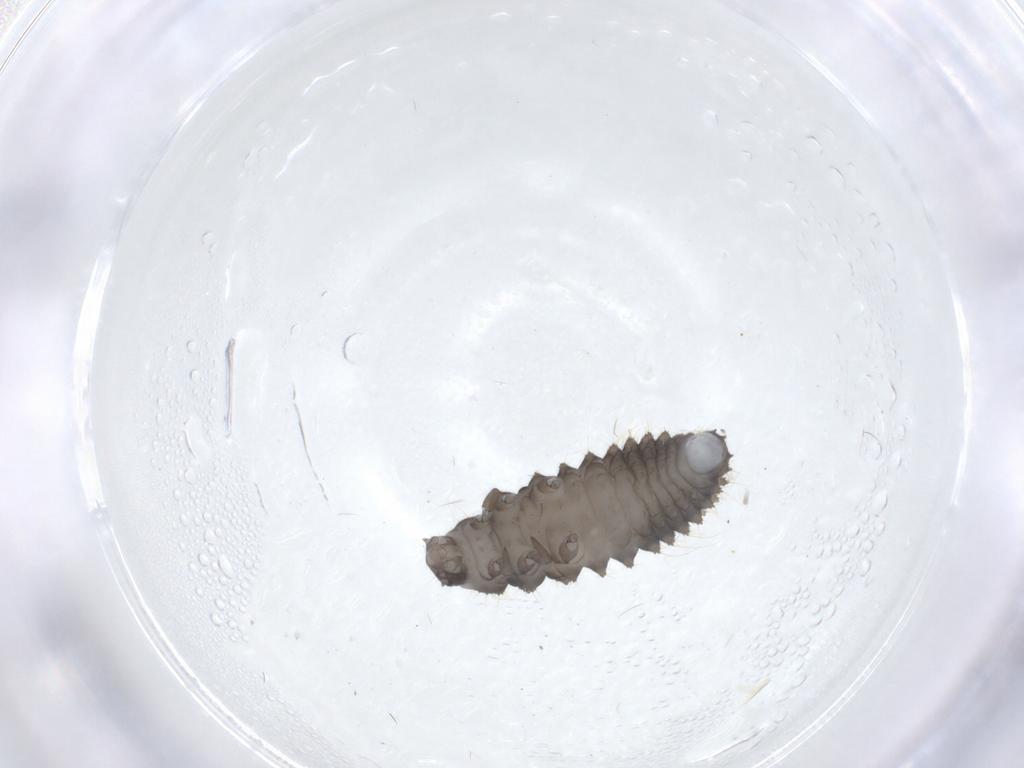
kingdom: Animalia
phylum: Arthropoda
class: Insecta
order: Coleoptera
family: Coccinellidae
